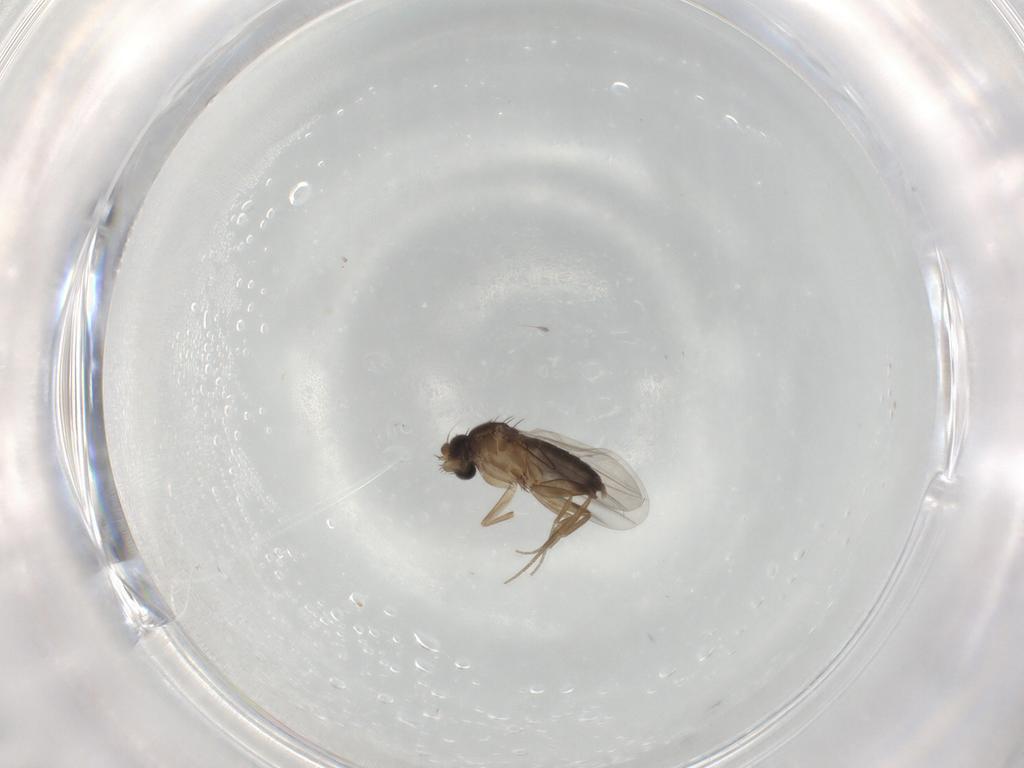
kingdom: Animalia
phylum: Arthropoda
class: Insecta
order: Diptera
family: Phoridae
